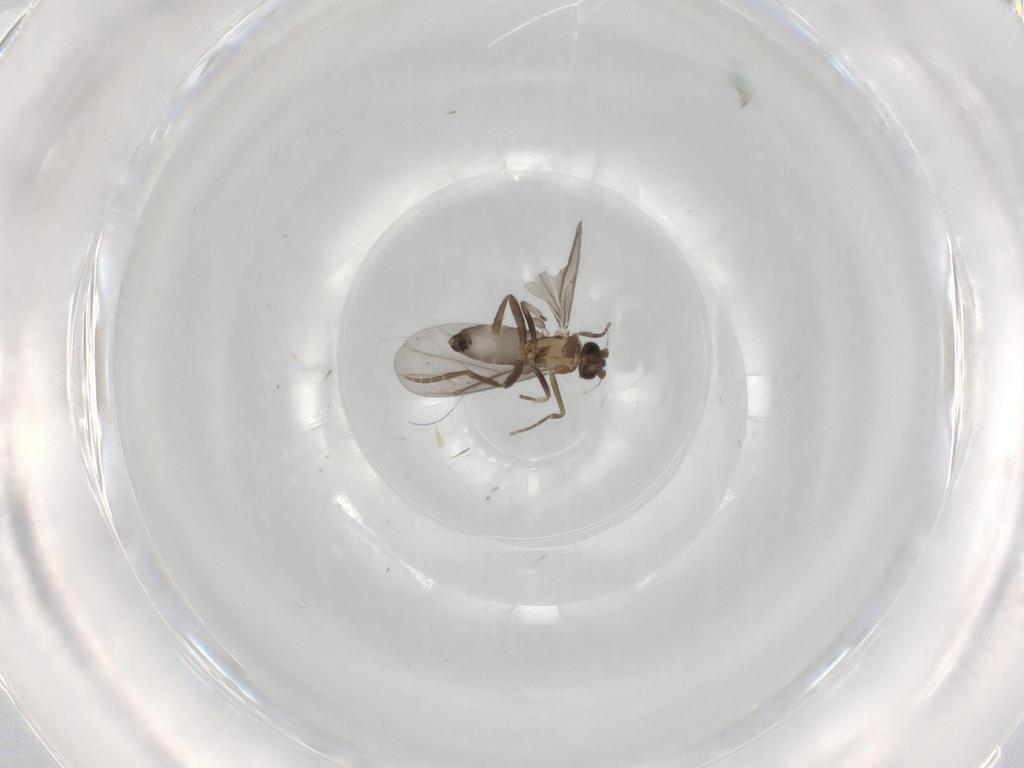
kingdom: Animalia
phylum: Arthropoda
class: Insecta
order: Diptera
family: Phoridae
